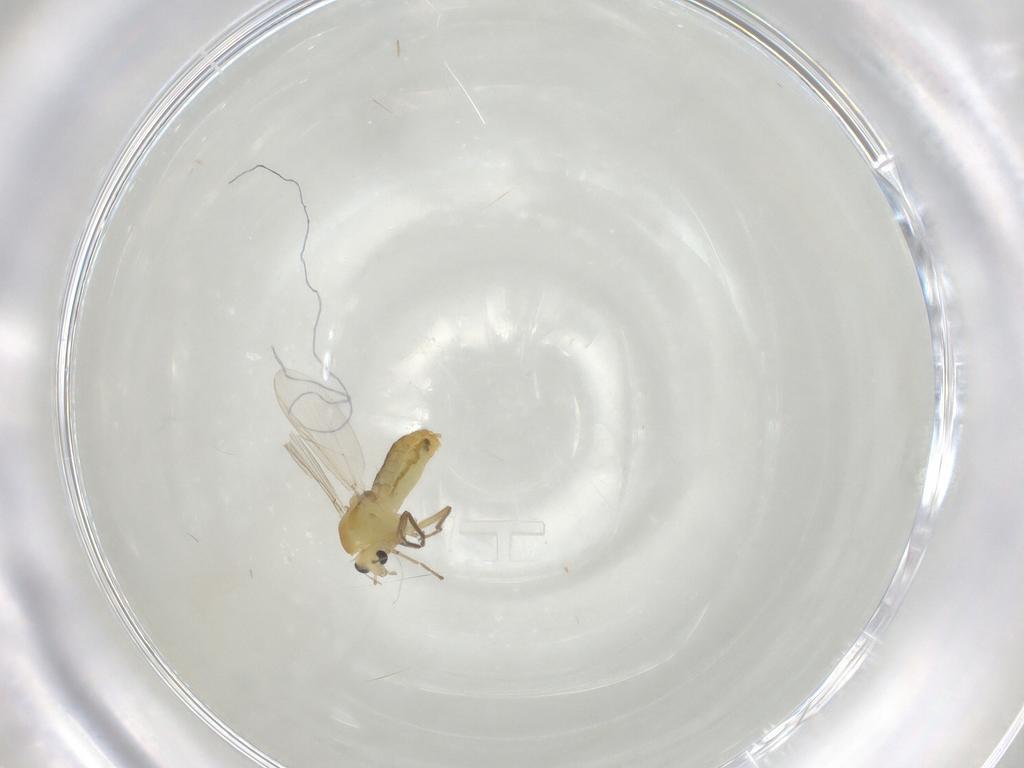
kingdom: Animalia
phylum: Arthropoda
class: Insecta
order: Diptera
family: Chironomidae
